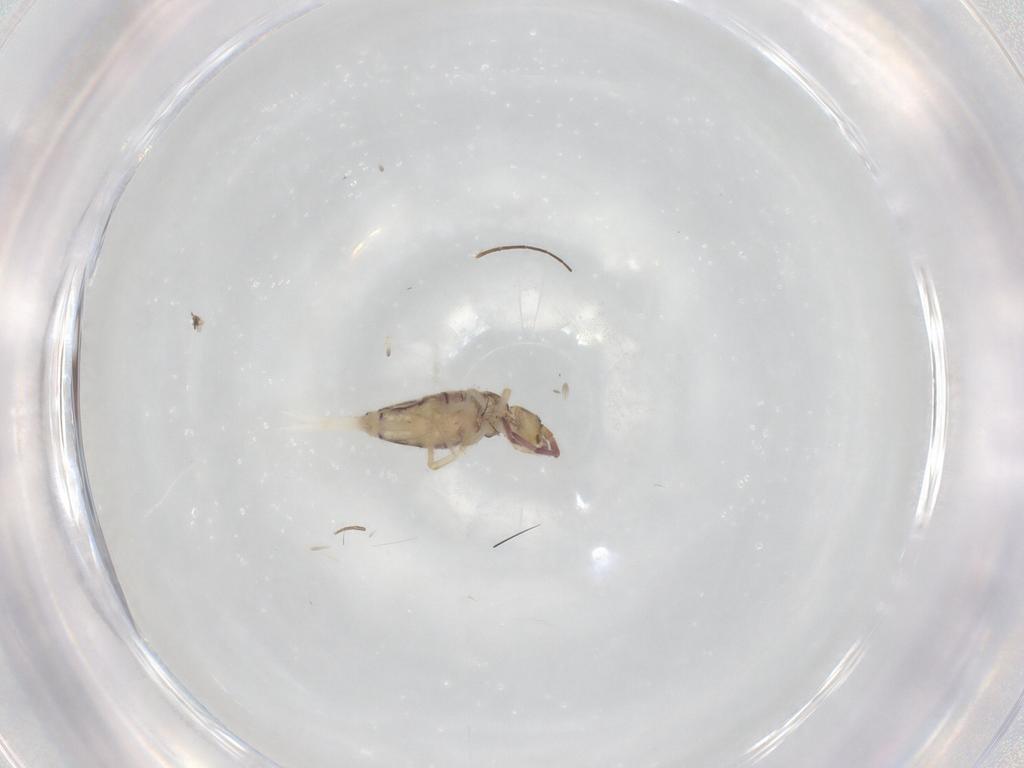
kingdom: Animalia
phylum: Arthropoda
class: Collembola
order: Entomobryomorpha
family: Entomobryidae
